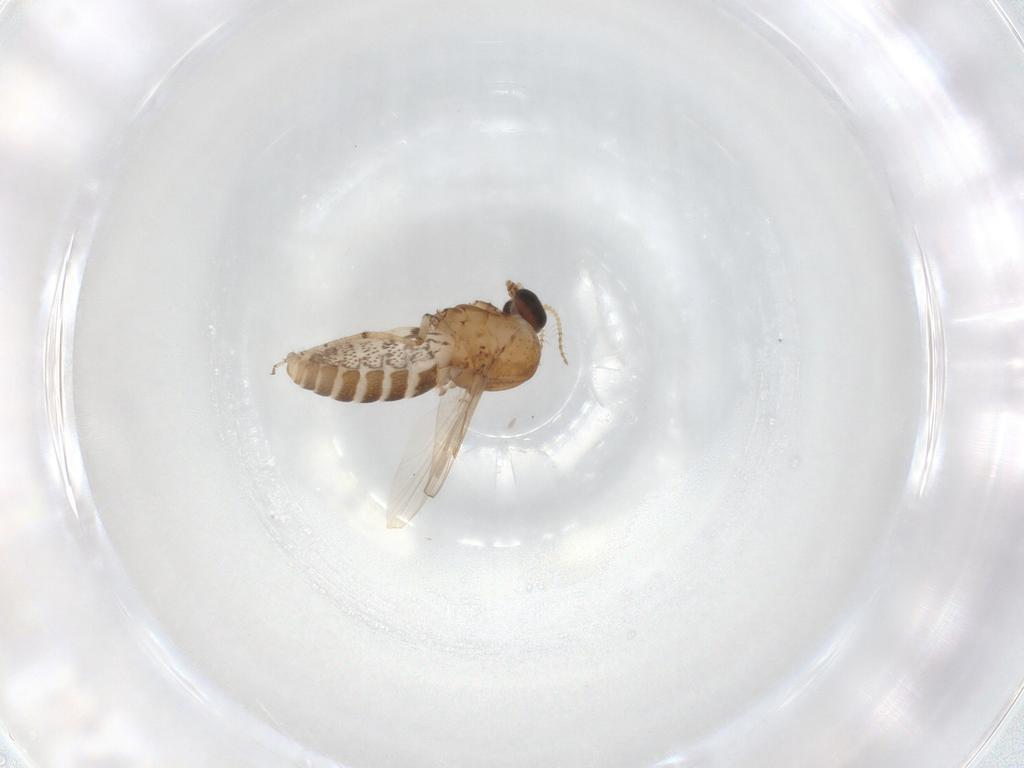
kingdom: Animalia
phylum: Arthropoda
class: Insecta
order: Diptera
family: Ceratopogonidae
